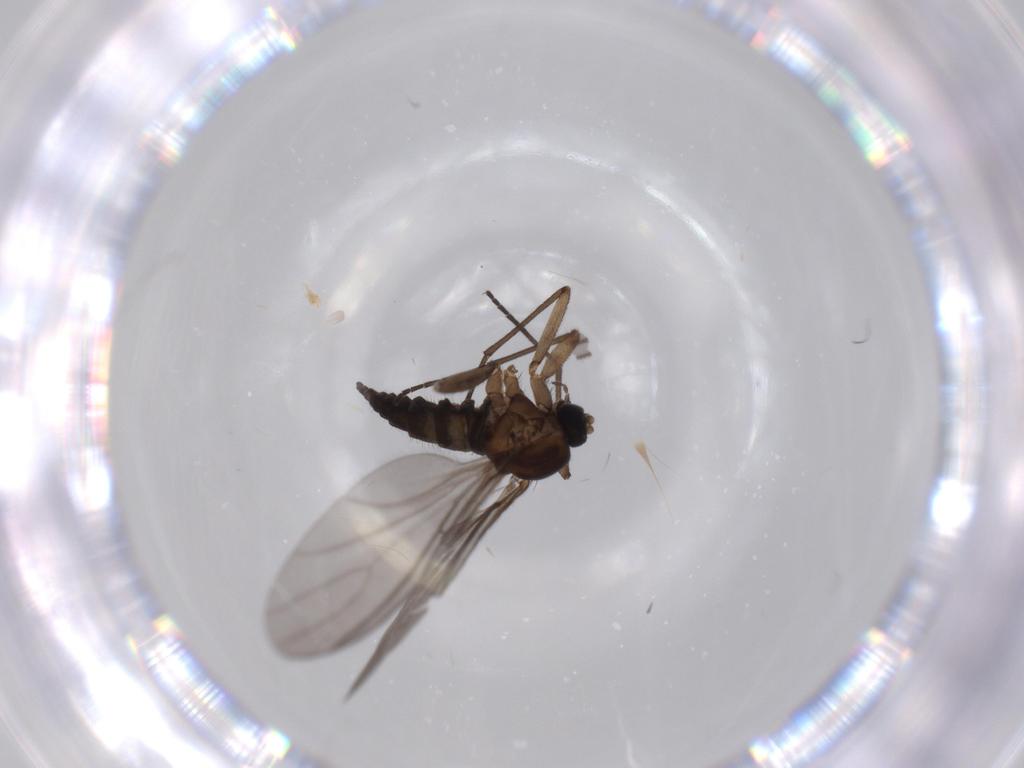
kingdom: Animalia
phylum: Arthropoda
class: Insecta
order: Diptera
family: Sciaridae
